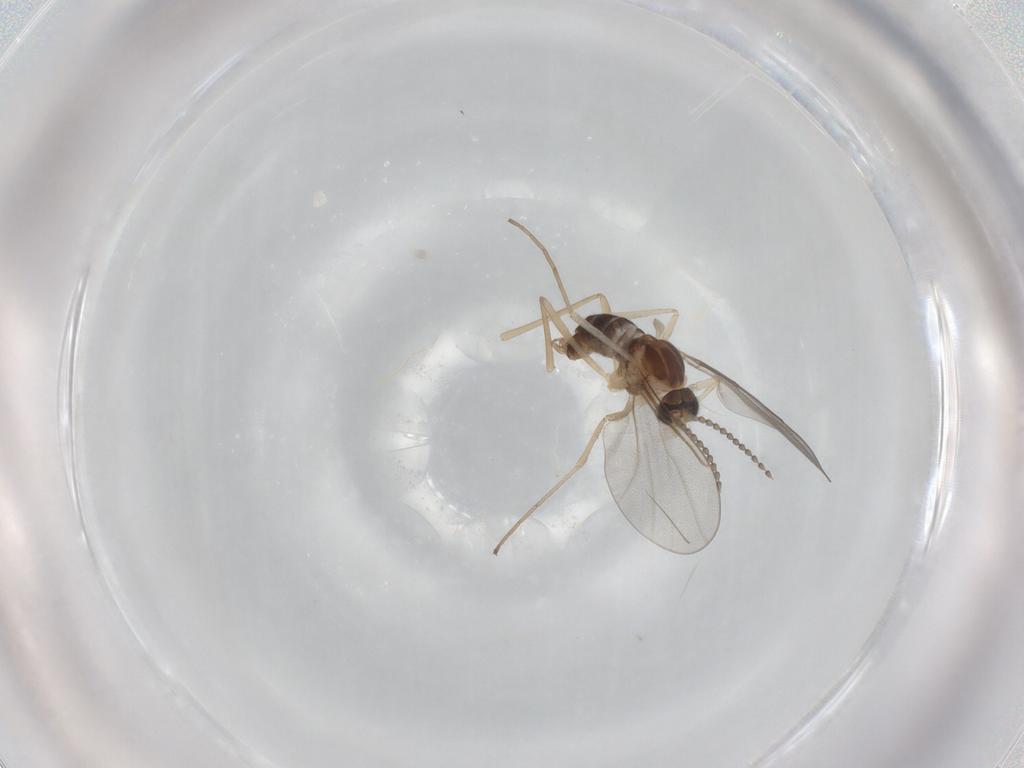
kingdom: Animalia
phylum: Arthropoda
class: Insecta
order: Diptera
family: Cecidomyiidae
